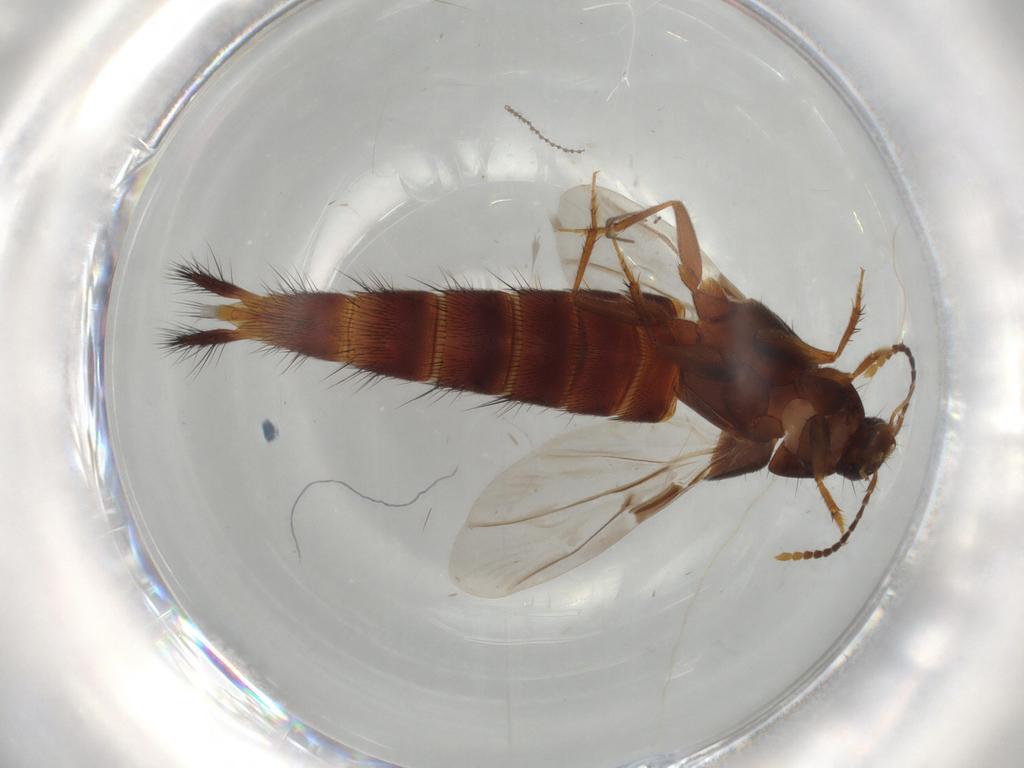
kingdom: Animalia
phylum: Arthropoda
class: Insecta
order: Coleoptera
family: Staphylinidae
